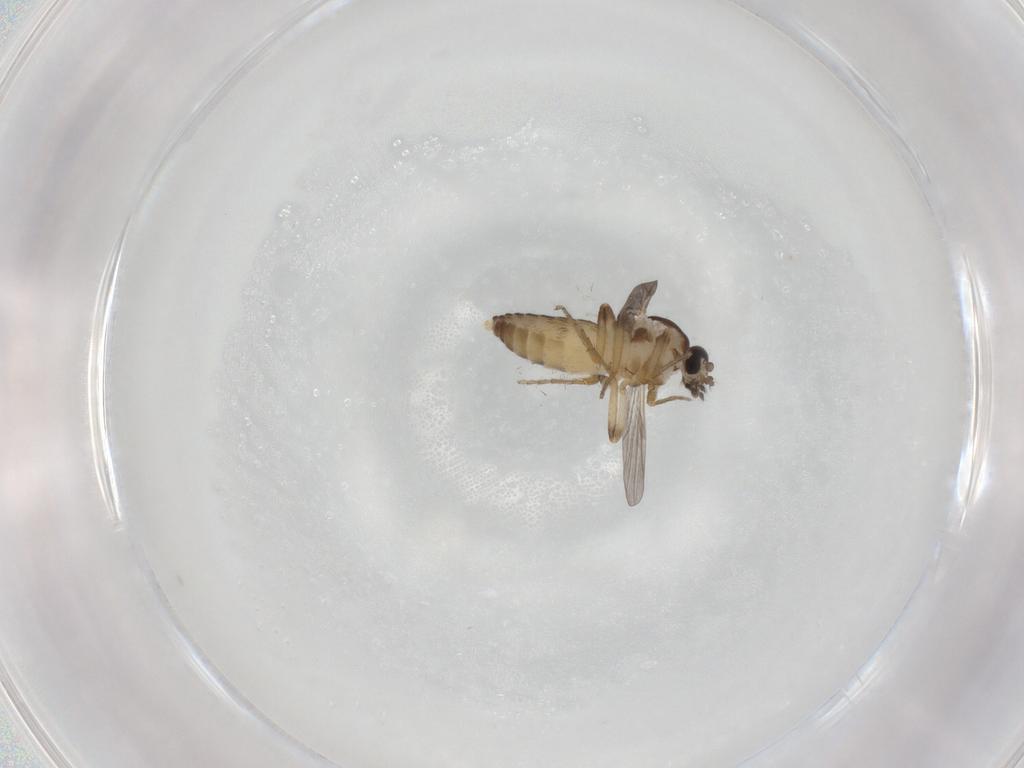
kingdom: Animalia
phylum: Arthropoda
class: Insecta
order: Diptera
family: Ceratopogonidae
